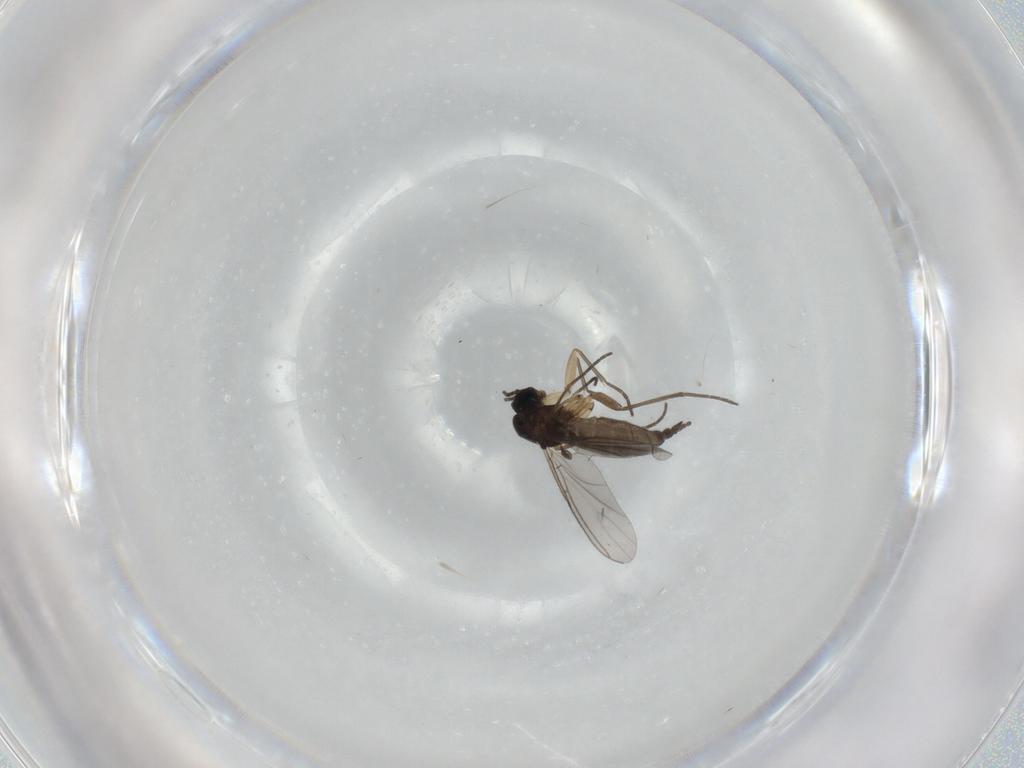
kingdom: Animalia
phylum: Arthropoda
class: Insecta
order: Diptera
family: Sciaridae
